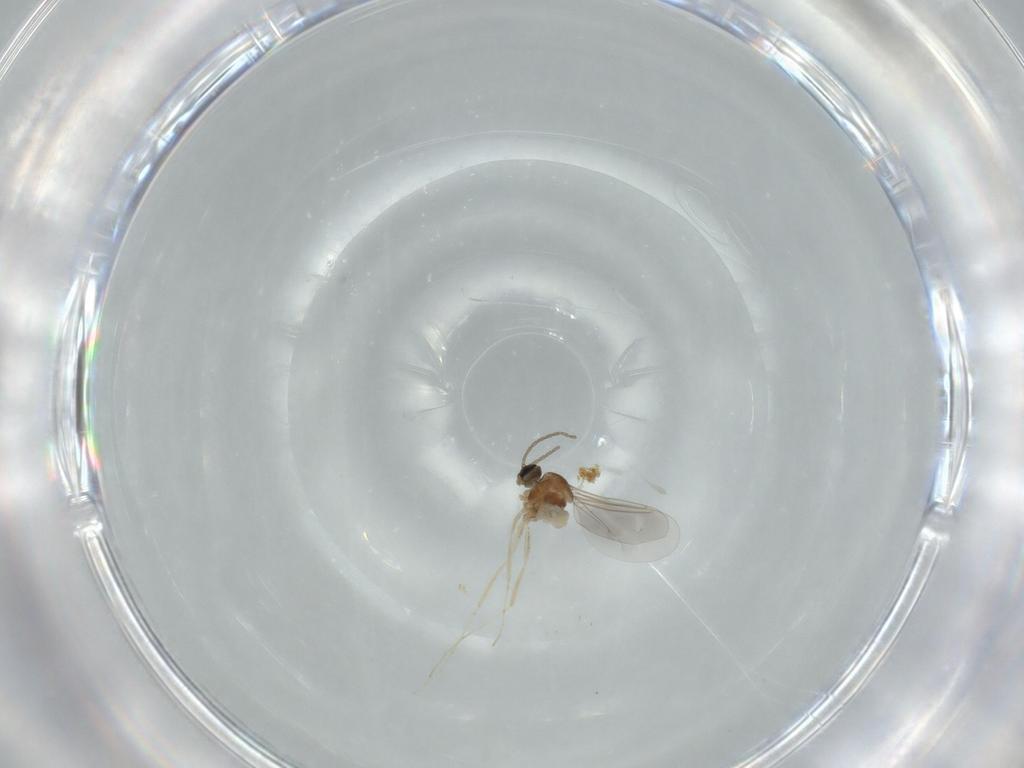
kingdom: Animalia
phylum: Arthropoda
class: Insecta
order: Diptera
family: Cecidomyiidae
